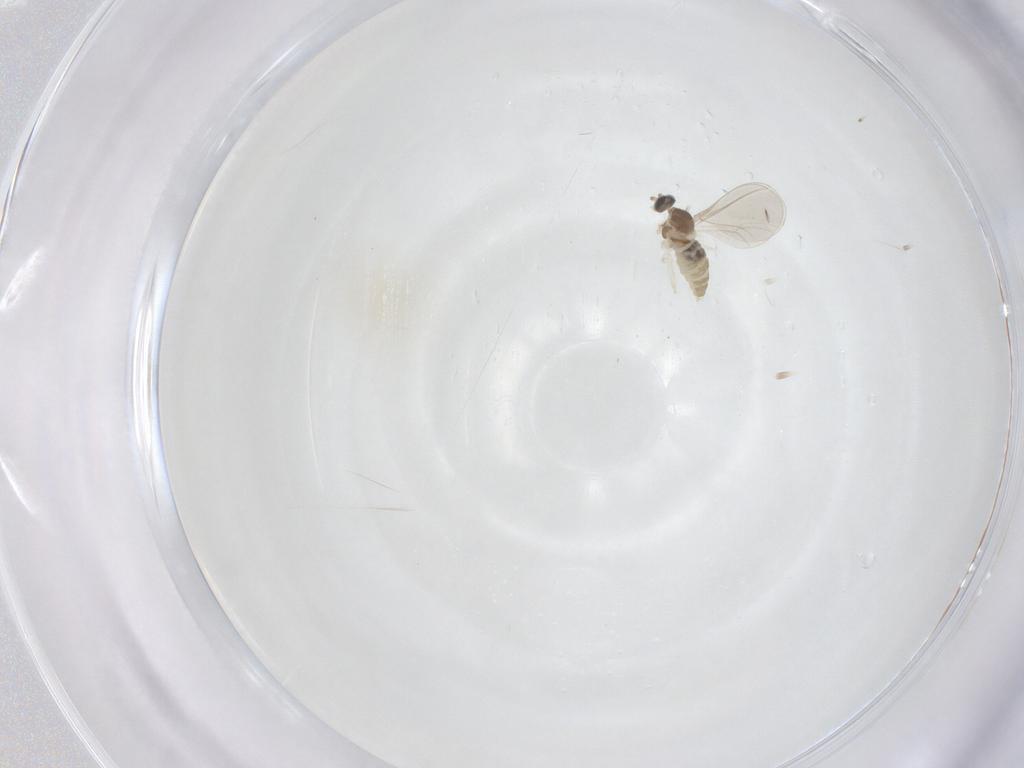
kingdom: Animalia
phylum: Arthropoda
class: Insecta
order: Diptera
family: Cecidomyiidae
